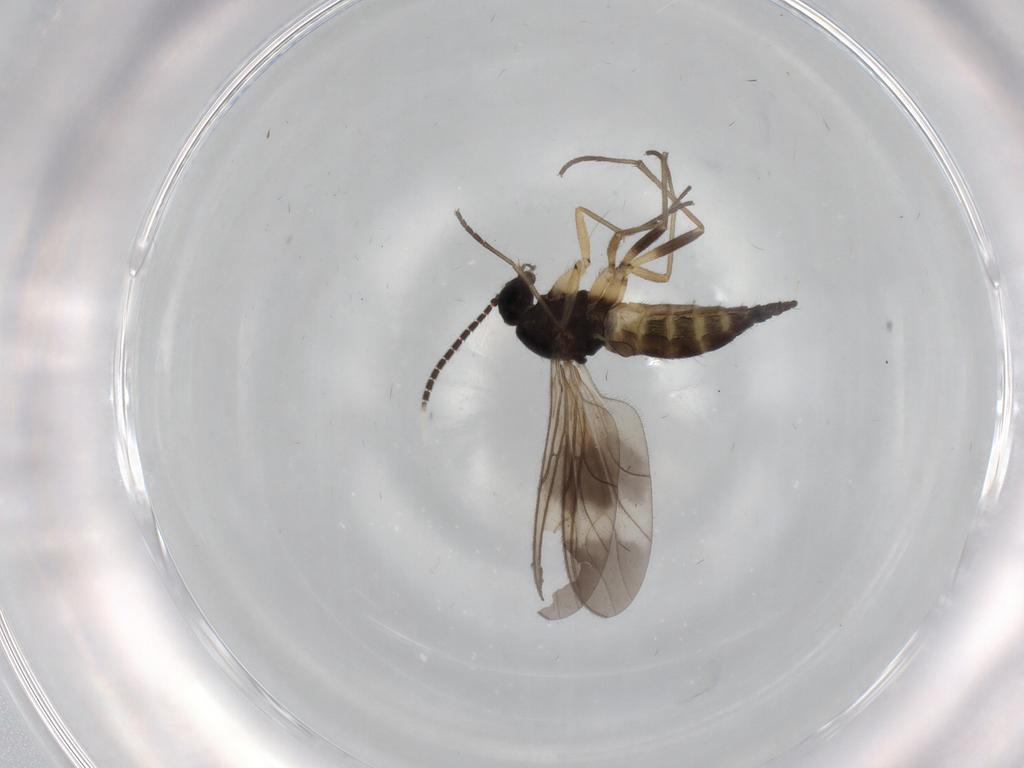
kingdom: Animalia
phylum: Arthropoda
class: Insecta
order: Diptera
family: Sciaridae
